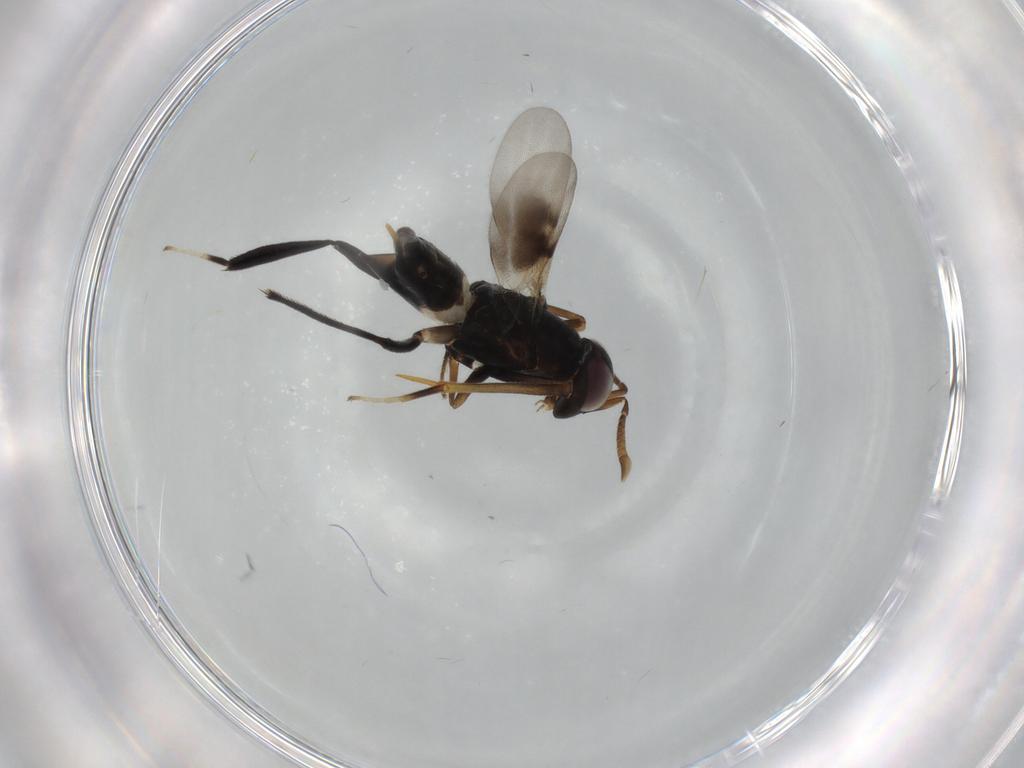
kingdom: Animalia
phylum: Arthropoda
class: Insecta
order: Hymenoptera
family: Encyrtidae
